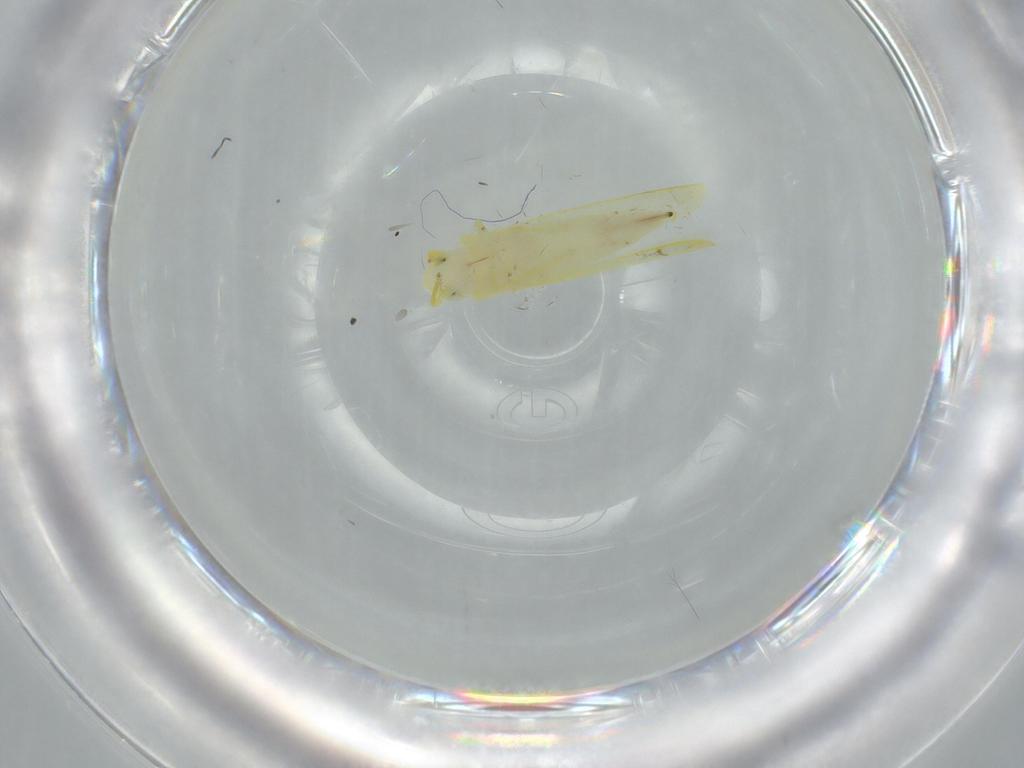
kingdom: Animalia
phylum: Arthropoda
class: Insecta
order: Hemiptera
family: Cicadellidae
